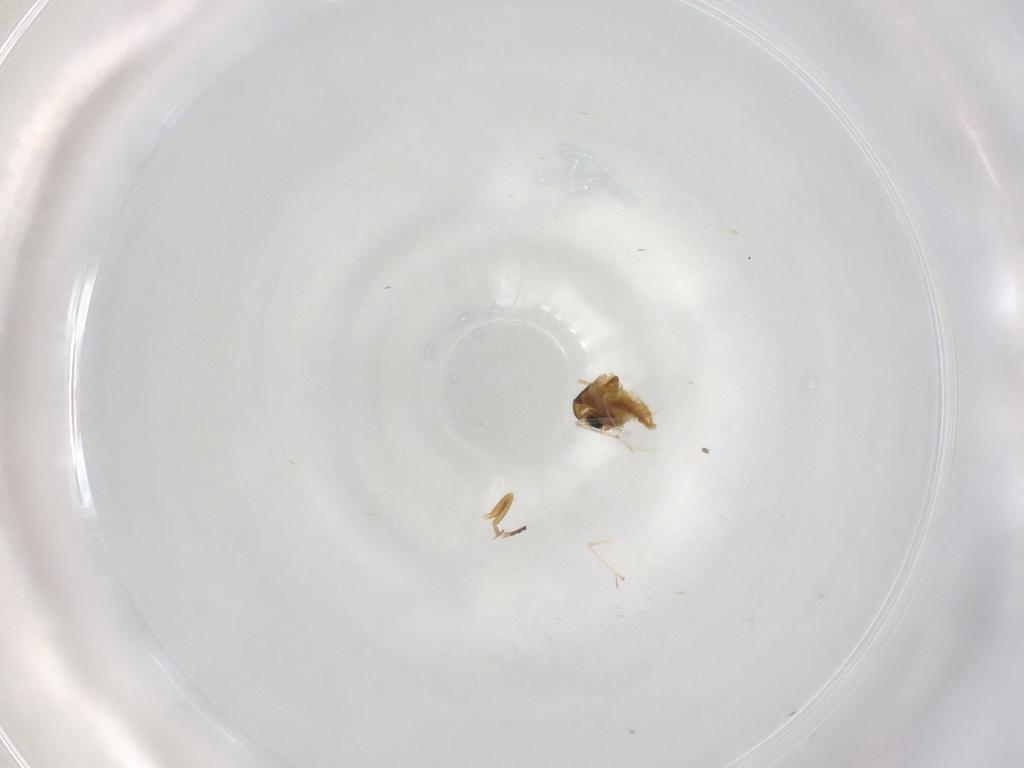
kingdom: Animalia
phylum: Arthropoda
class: Insecta
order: Diptera
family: Chloropidae
